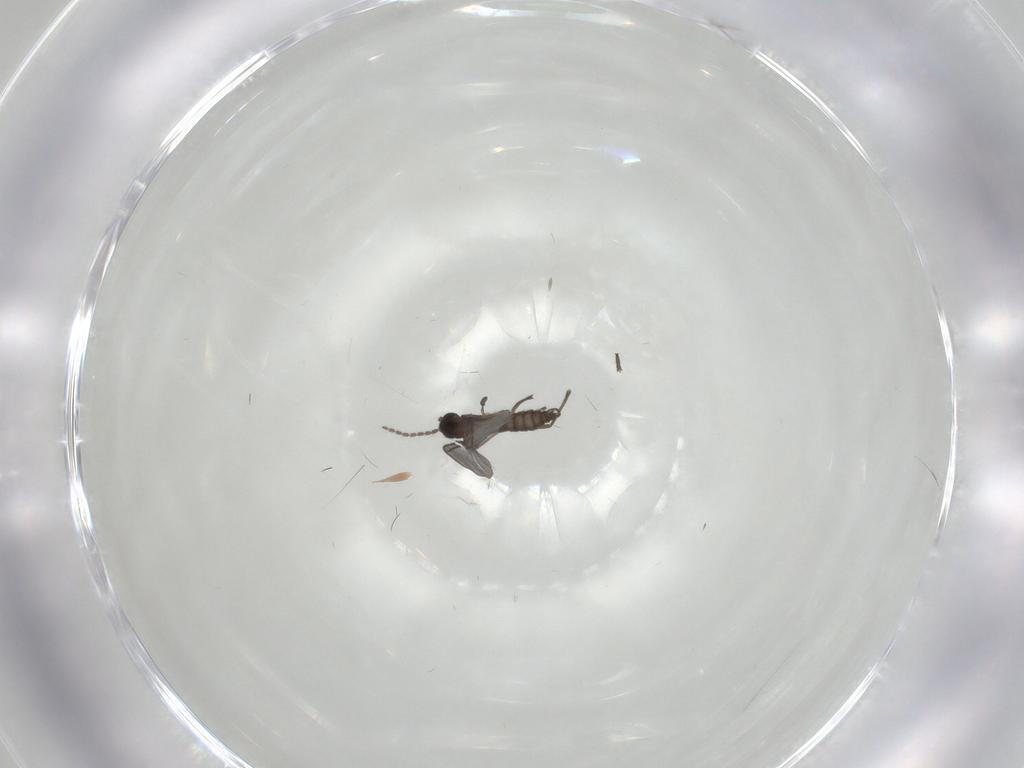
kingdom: Animalia
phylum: Arthropoda
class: Insecta
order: Diptera
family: Sciaridae
